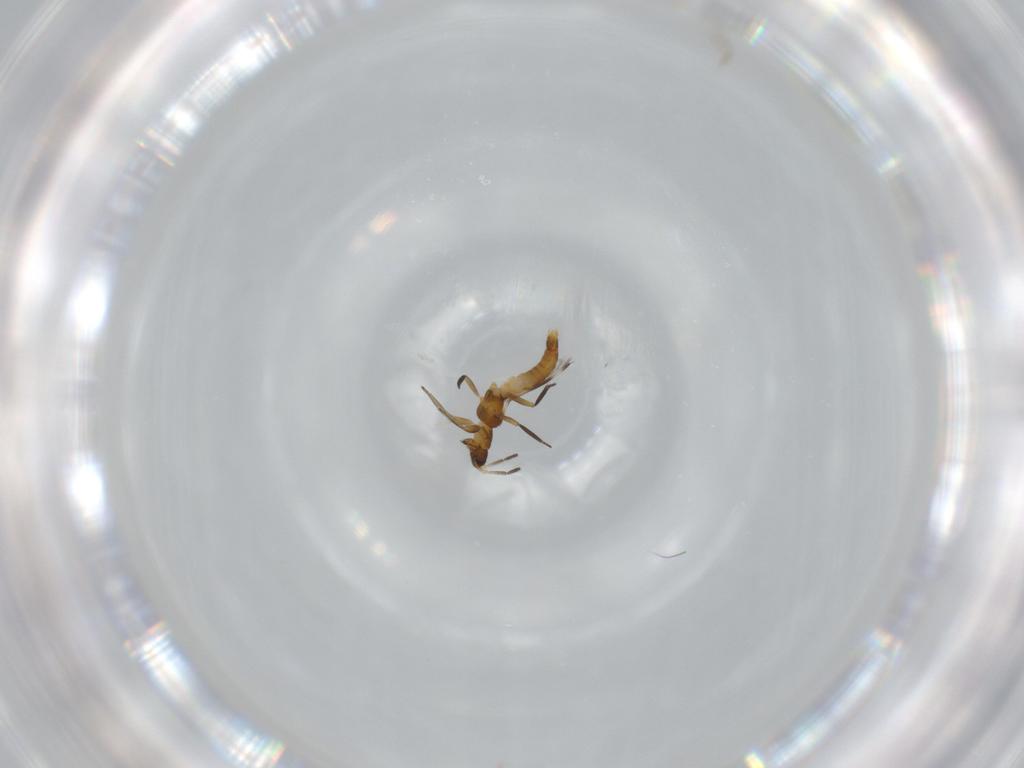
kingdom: Animalia
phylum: Arthropoda
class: Insecta
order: Thysanoptera
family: Aeolothripidae
